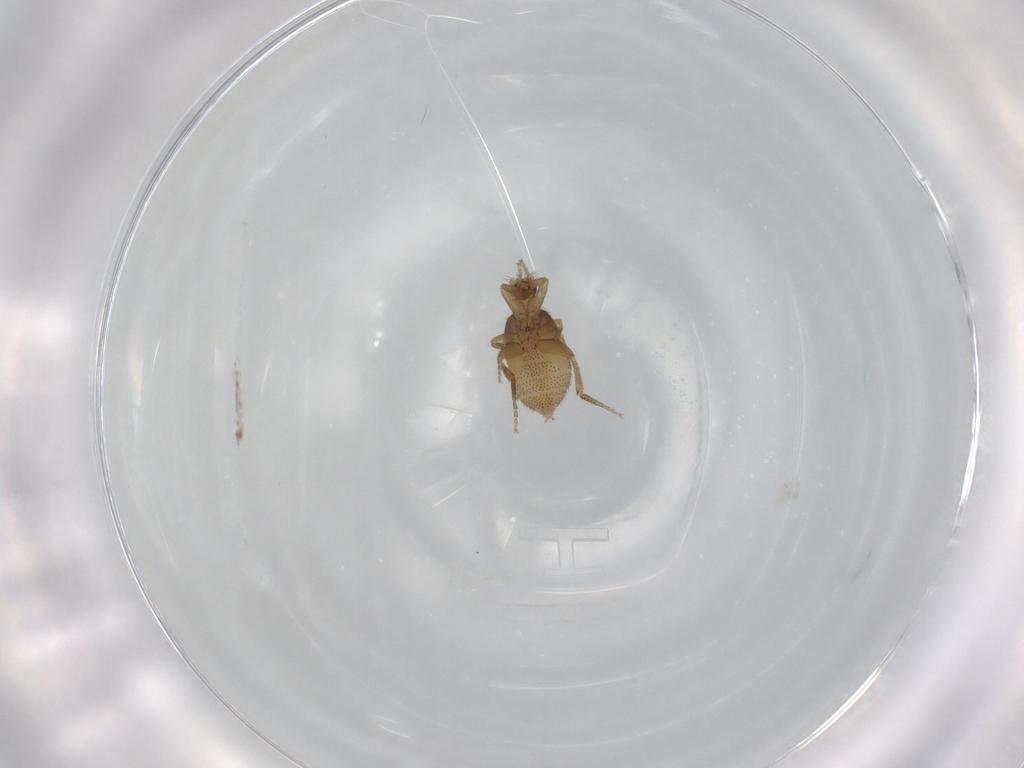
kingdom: Animalia
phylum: Arthropoda
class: Insecta
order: Diptera
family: Phoridae
